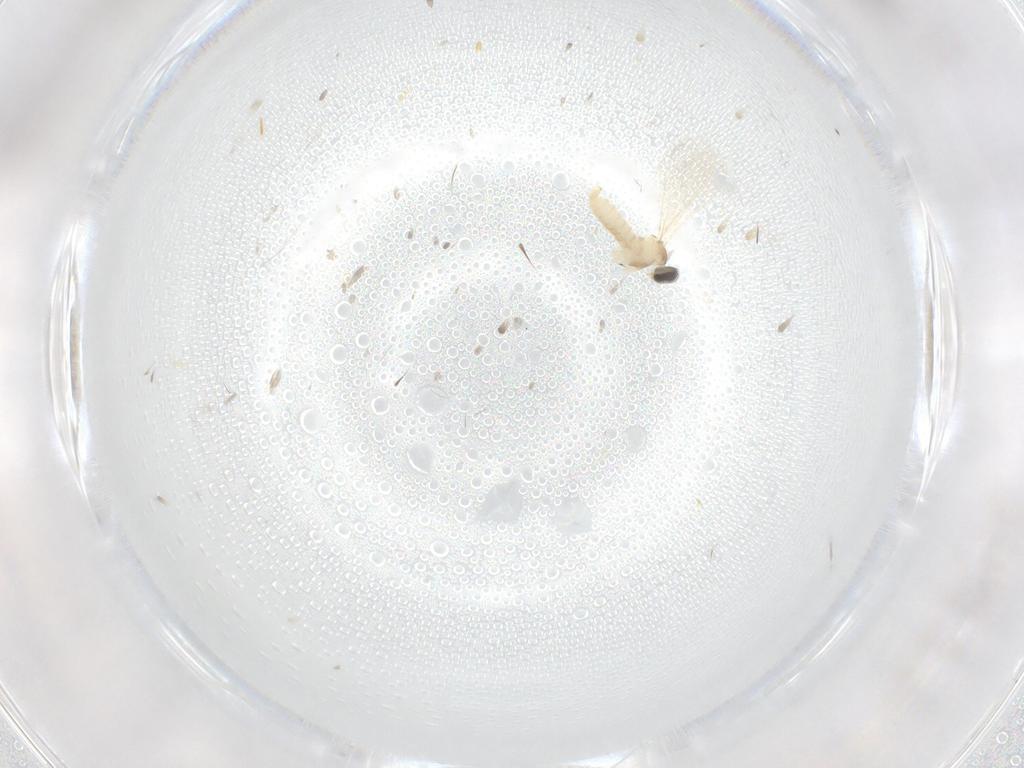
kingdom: Animalia
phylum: Arthropoda
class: Insecta
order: Diptera
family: Cecidomyiidae
